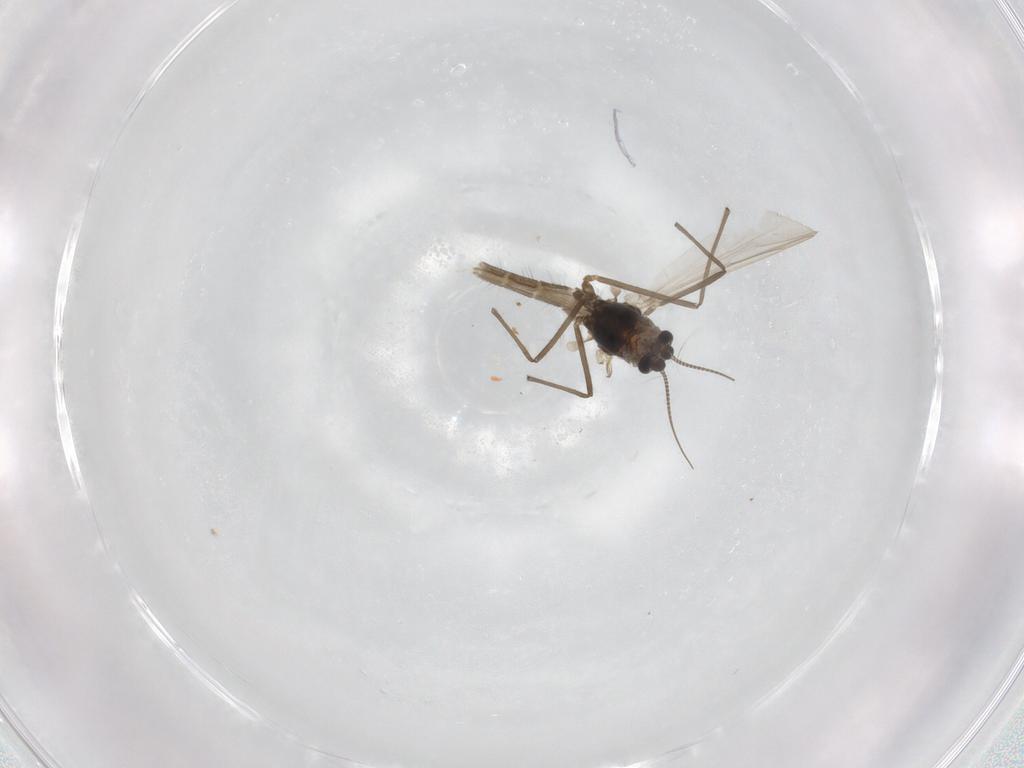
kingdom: Animalia
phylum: Arthropoda
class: Insecta
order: Diptera
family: Chironomidae
